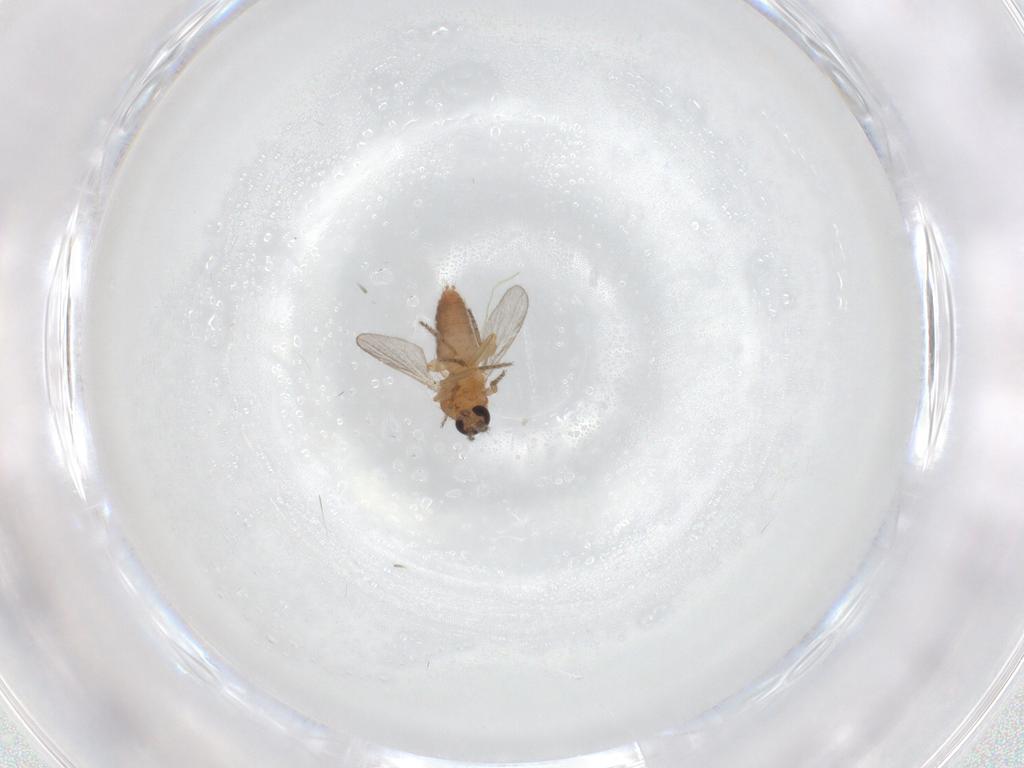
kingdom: Animalia
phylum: Arthropoda
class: Insecta
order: Diptera
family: Ceratopogonidae
